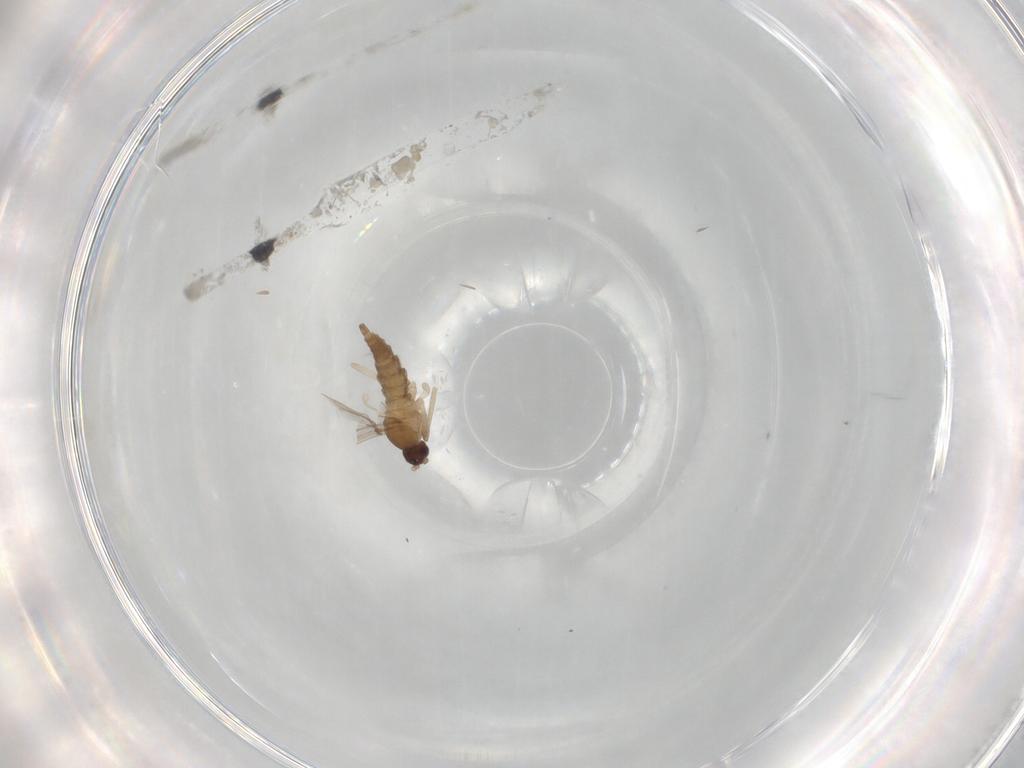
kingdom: Animalia
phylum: Arthropoda
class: Insecta
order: Diptera
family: Cecidomyiidae
